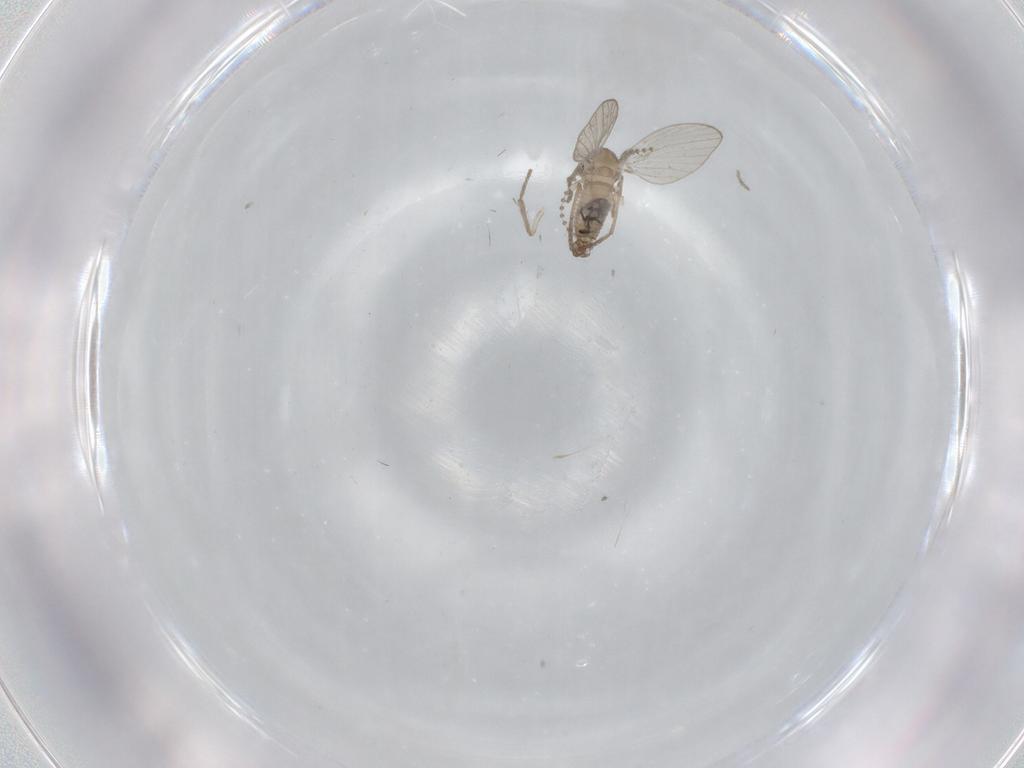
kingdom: Animalia
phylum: Arthropoda
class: Insecta
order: Diptera
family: Psychodidae
